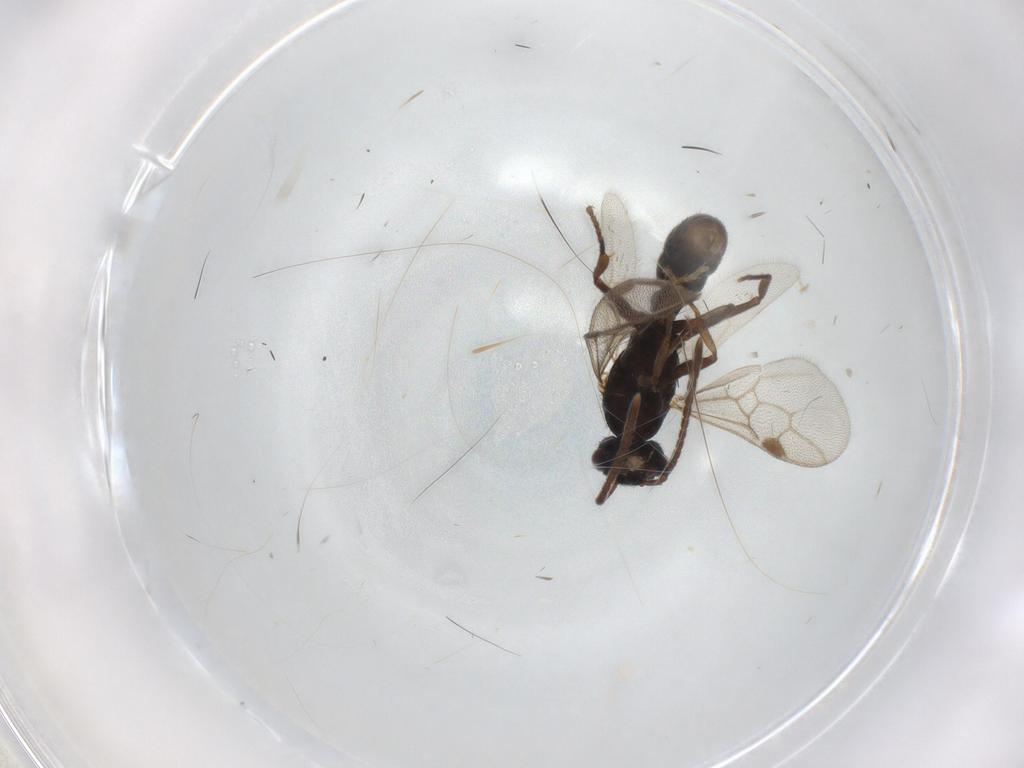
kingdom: Animalia
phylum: Arthropoda
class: Insecta
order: Hymenoptera
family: Formicidae
